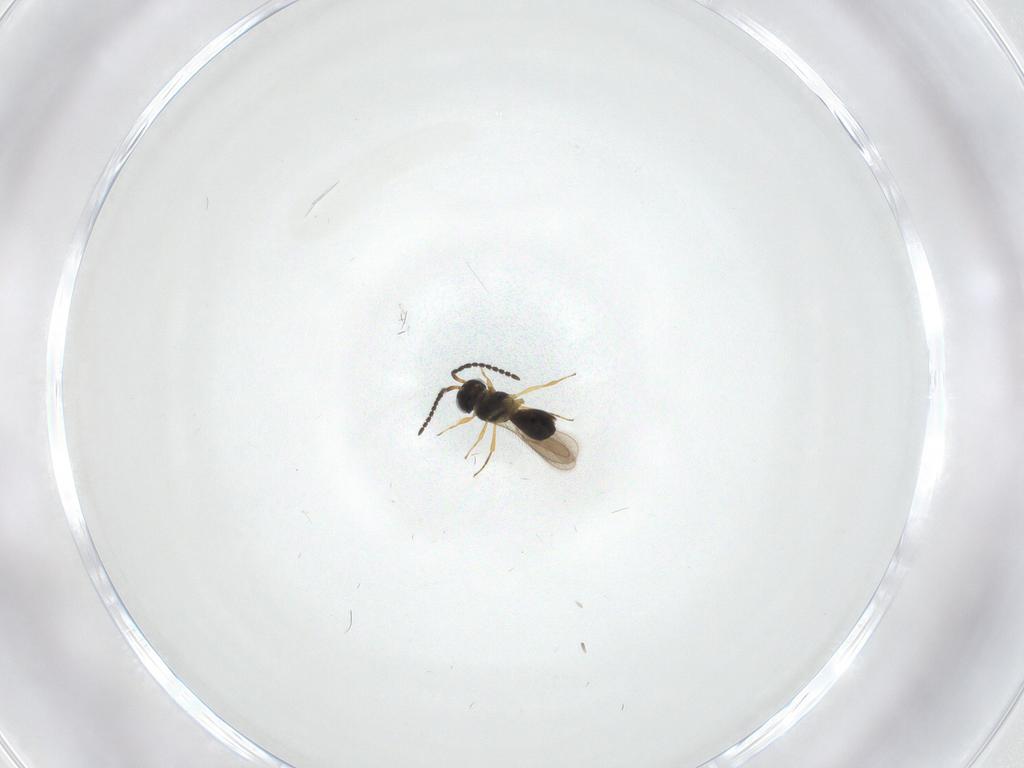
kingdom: Animalia
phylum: Arthropoda
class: Insecta
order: Hymenoptera
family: Scelionidae
